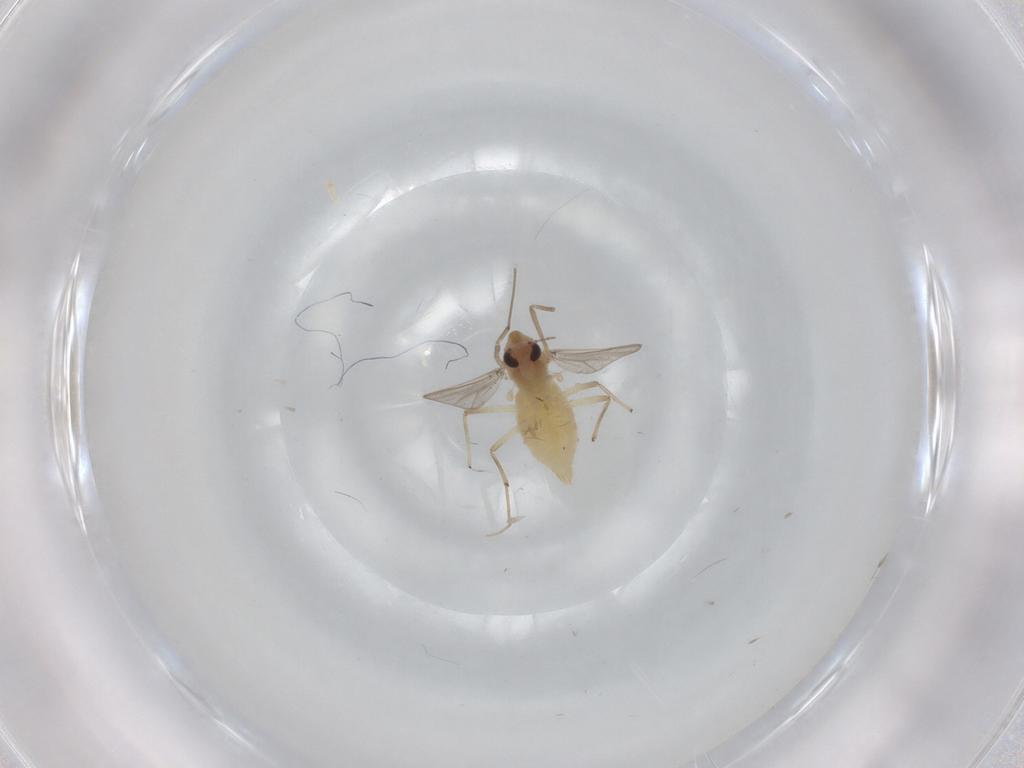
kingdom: Animalia
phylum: Arthropoda
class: Insecta
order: Diptera
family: Chironomidae
